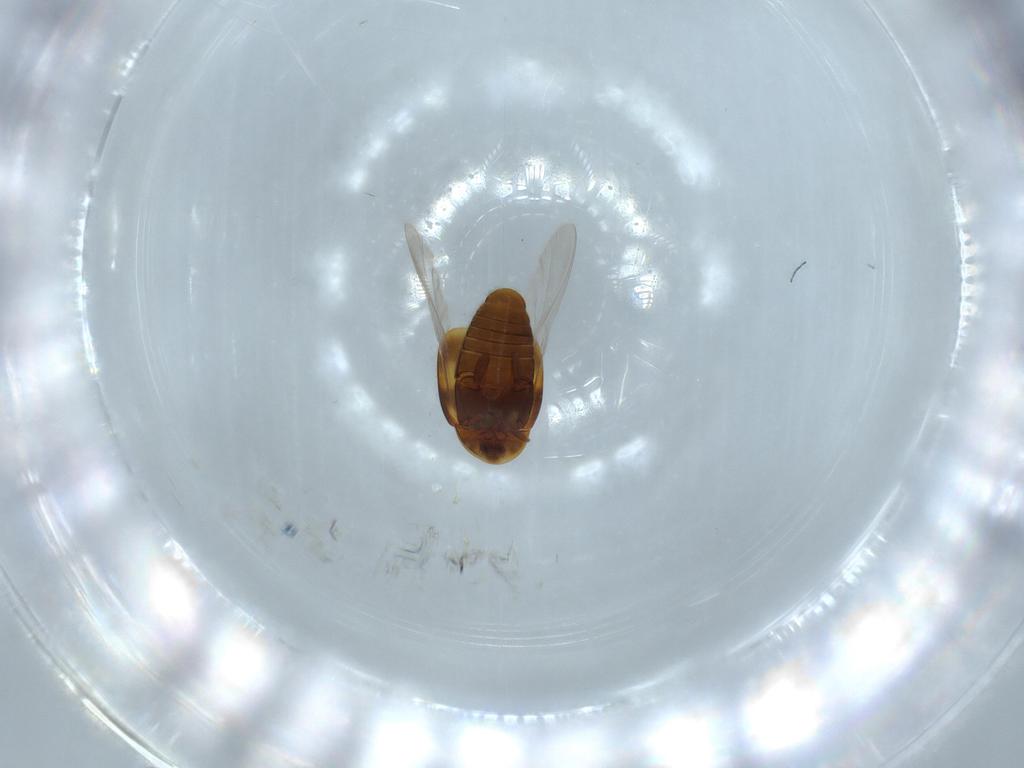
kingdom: Animalia
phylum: Arthropoda
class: Insecta
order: Coleoptera
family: Corylophidae
